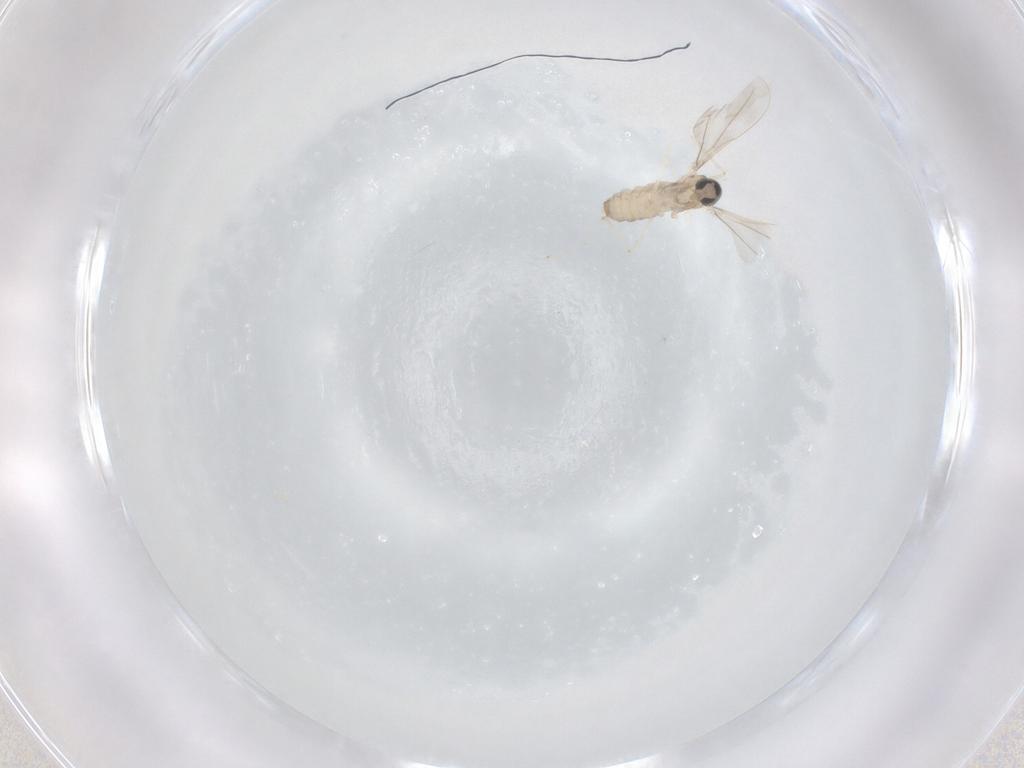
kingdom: Animalia
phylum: Arthropoda
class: Insecta
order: Diptera
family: Cecidomyiidae
